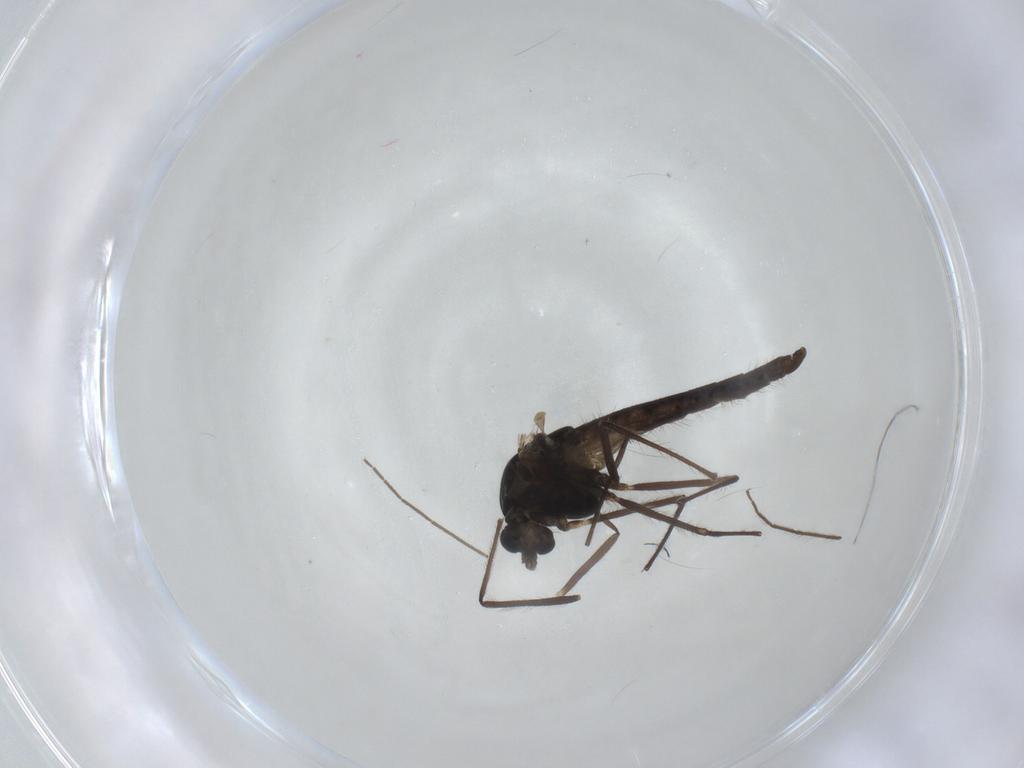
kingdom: Animalia
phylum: Arthropoda
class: Insecta
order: Diptera
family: Chironomidae
